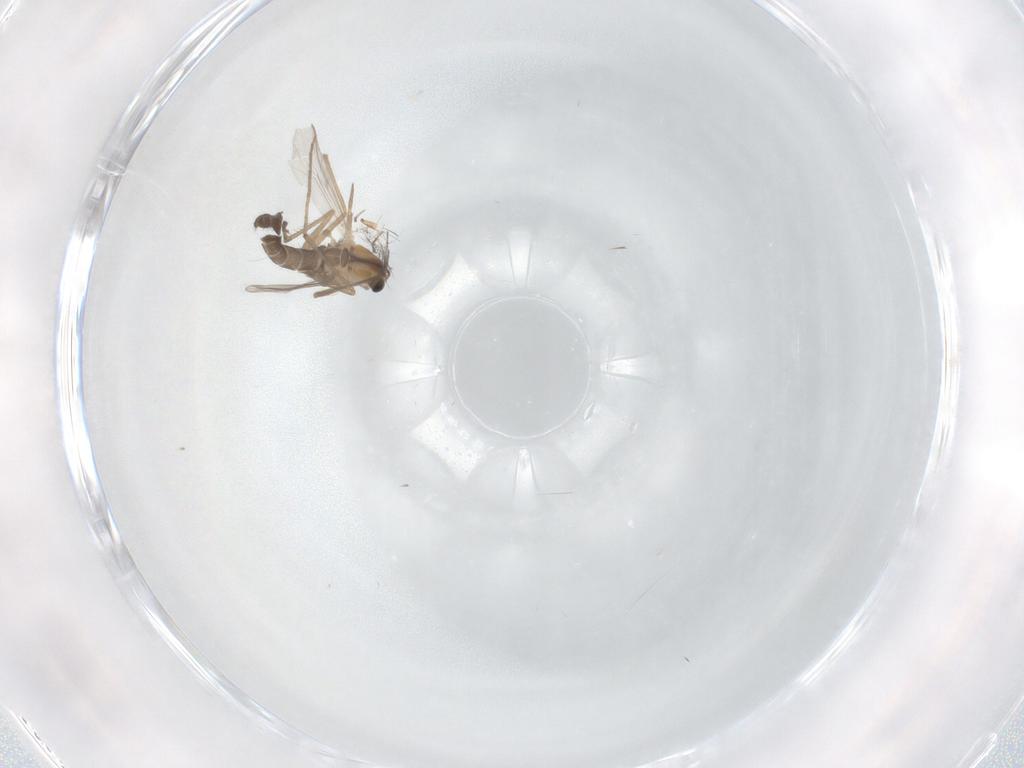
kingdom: Animalia
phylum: Arthropoda
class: Insecta
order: Diptera
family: Chironomidae
